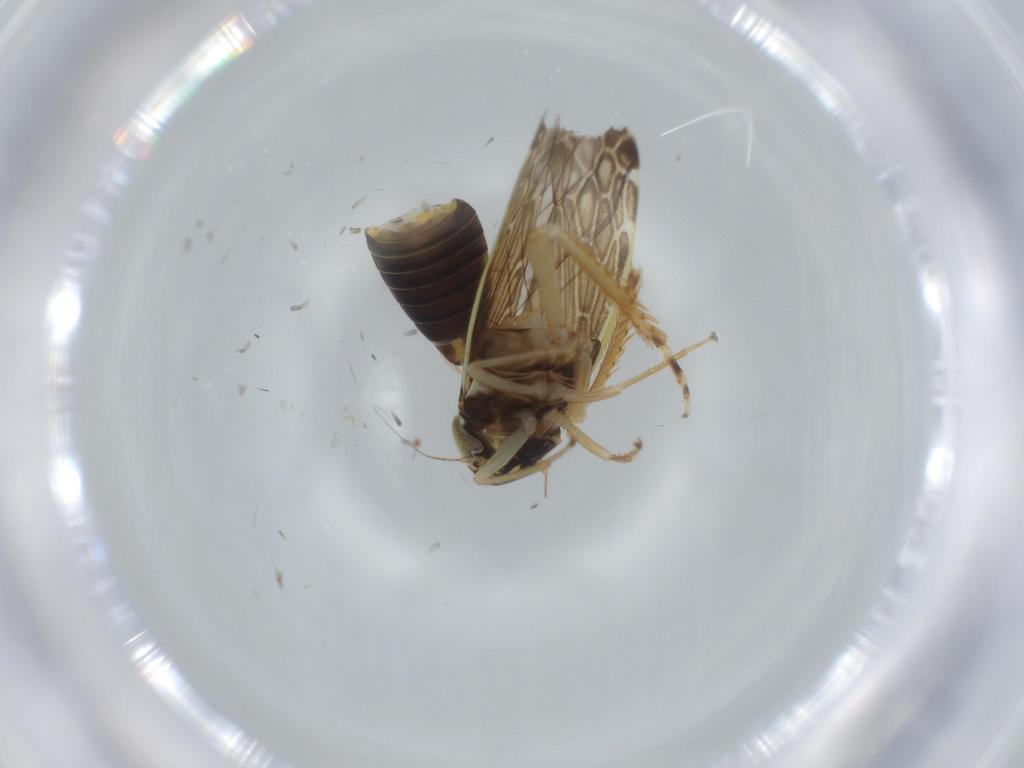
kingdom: Animalia
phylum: Arthropoda
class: Insecta
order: Hemiptera
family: Cicadellidae
